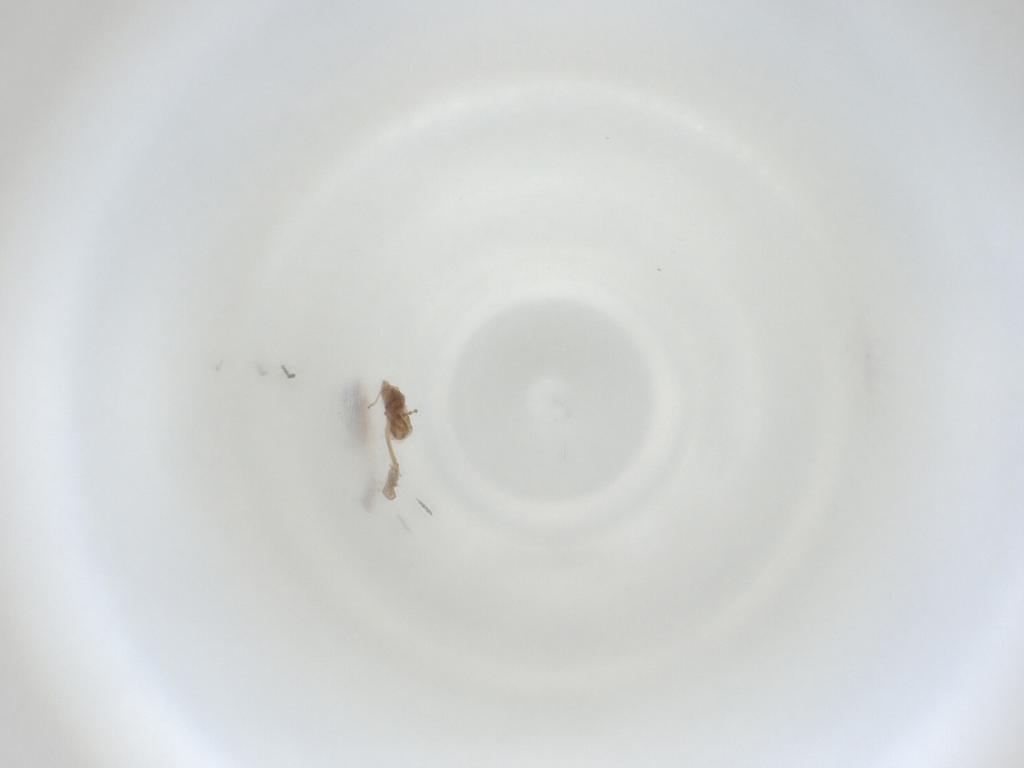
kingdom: Animalia
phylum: Arthropoda
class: Insecta
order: Diptera
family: Cecidomyiidae
